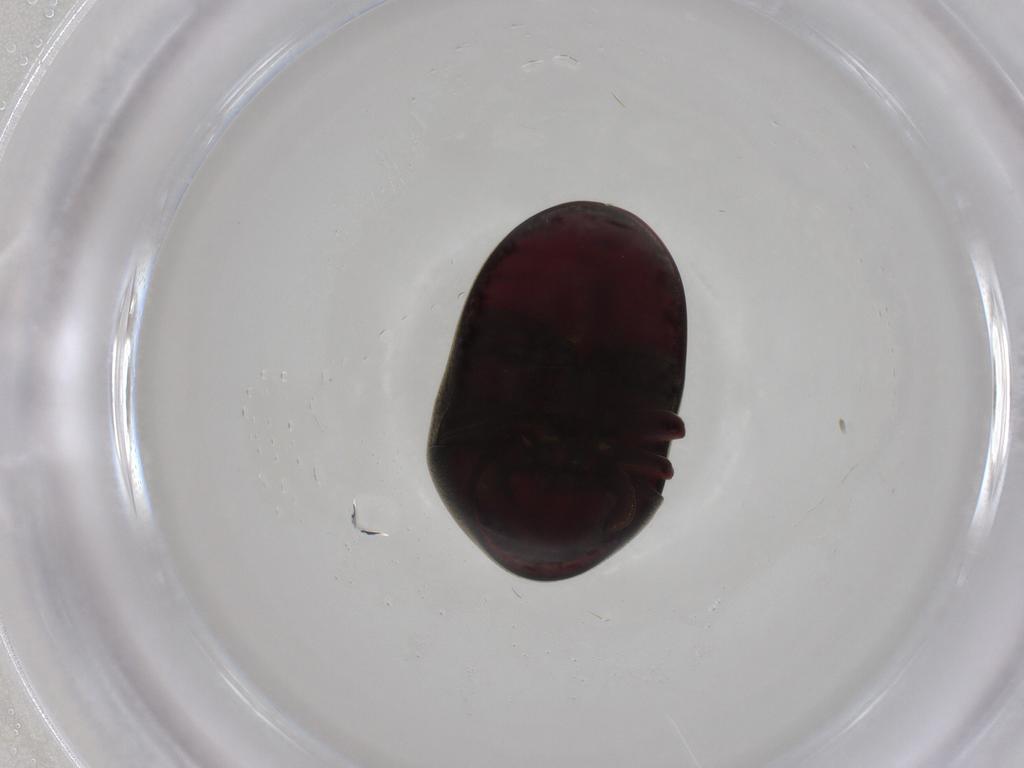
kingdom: Animalia
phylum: Arthropoda
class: Insecta
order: Coleoptera
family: Ptinidae
